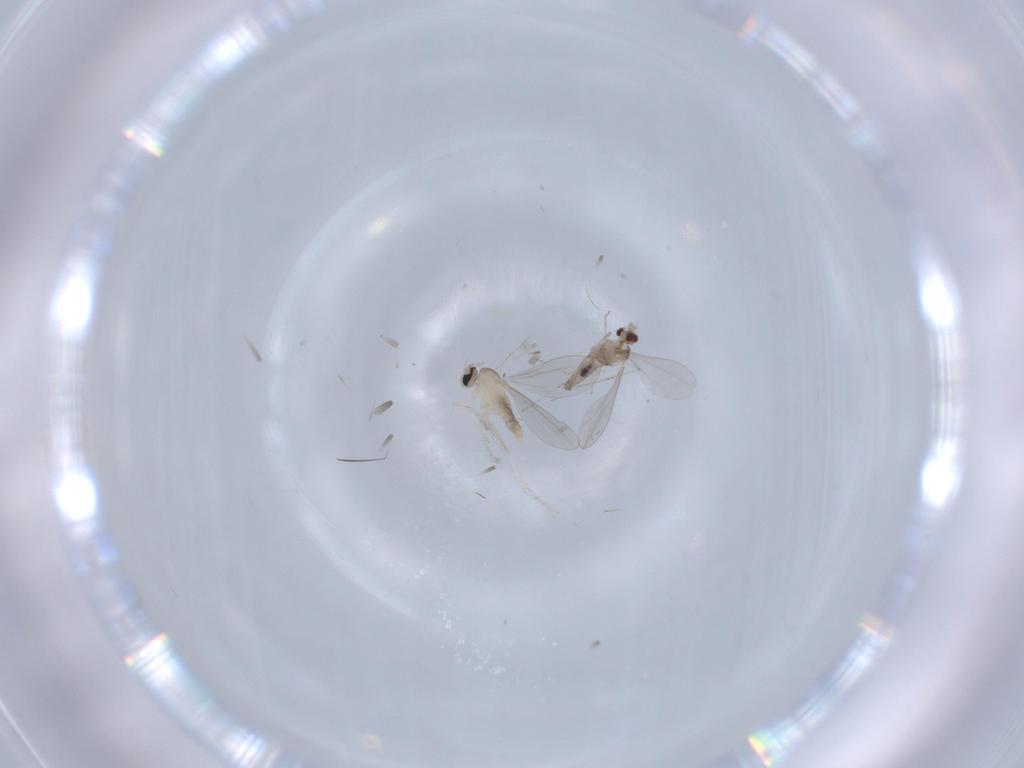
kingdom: Animalia
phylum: Arthropoda
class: Insecta
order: Diptera
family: Cecidomyiidae
